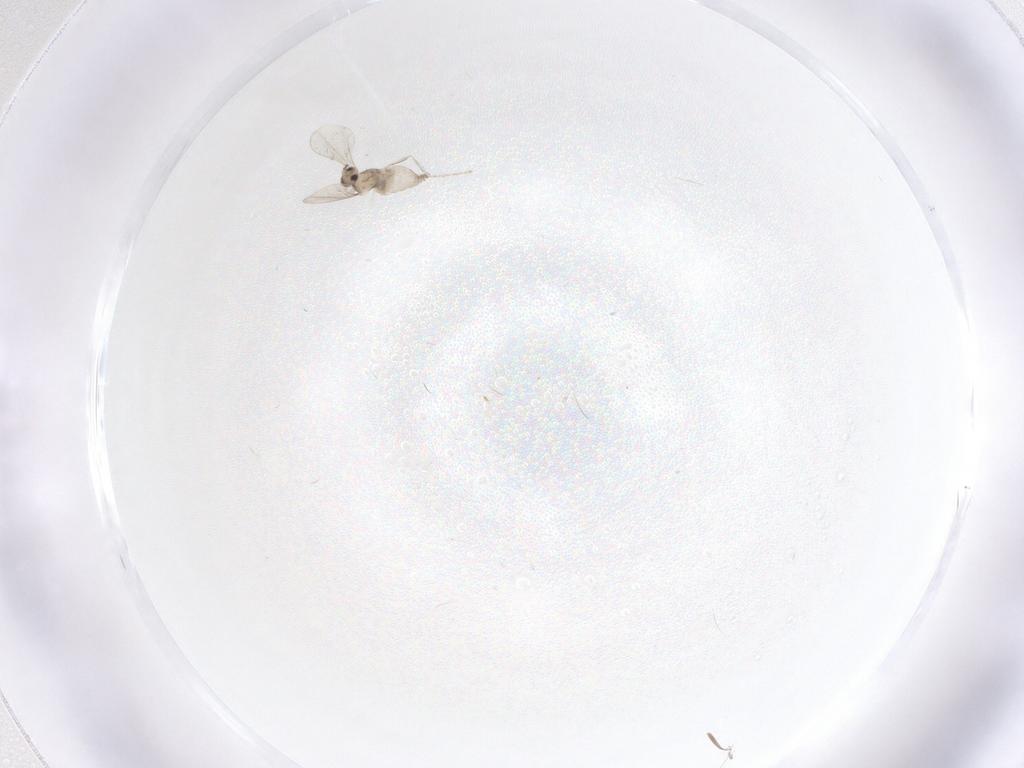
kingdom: Animalia
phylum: Arthropoda
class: Insecta
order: Diptera
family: Cecidomyiidae
